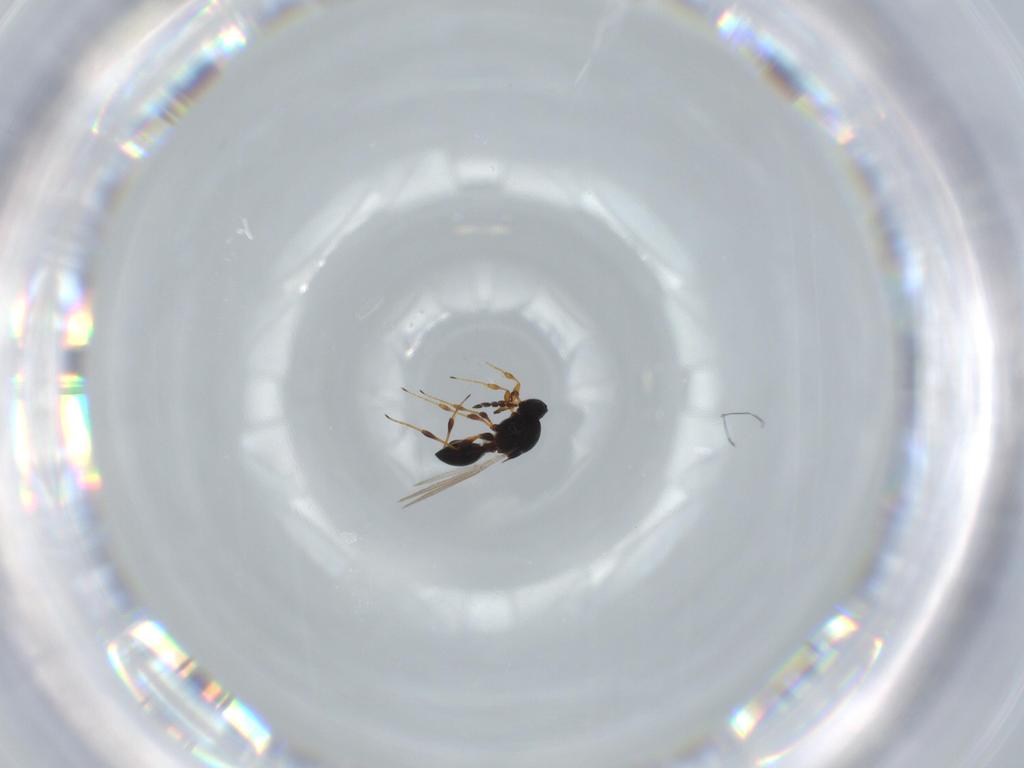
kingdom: Animalia
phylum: Arthropoda
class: Insecta
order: Hymenoptera
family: Platygastridae
